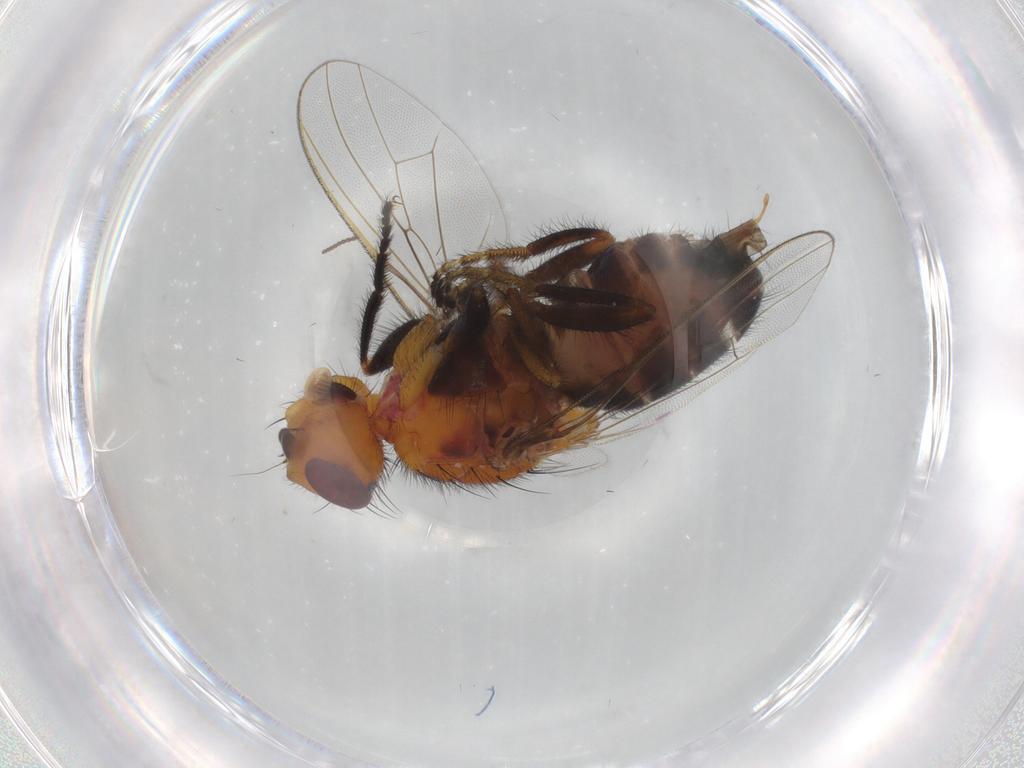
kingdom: Animalia
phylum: Arthropoda
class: Insecta
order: Diptera
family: Piophilidae
